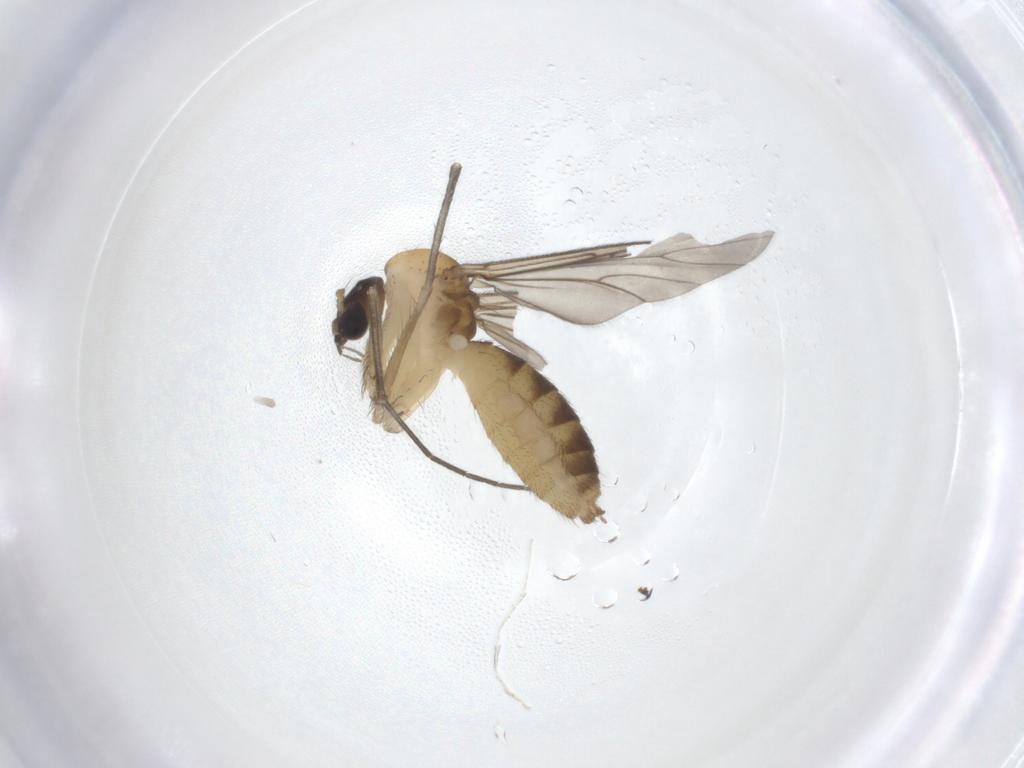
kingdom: Animalia
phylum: Arthropoda
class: Insecta
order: Diptera
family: Mycetophilidae
